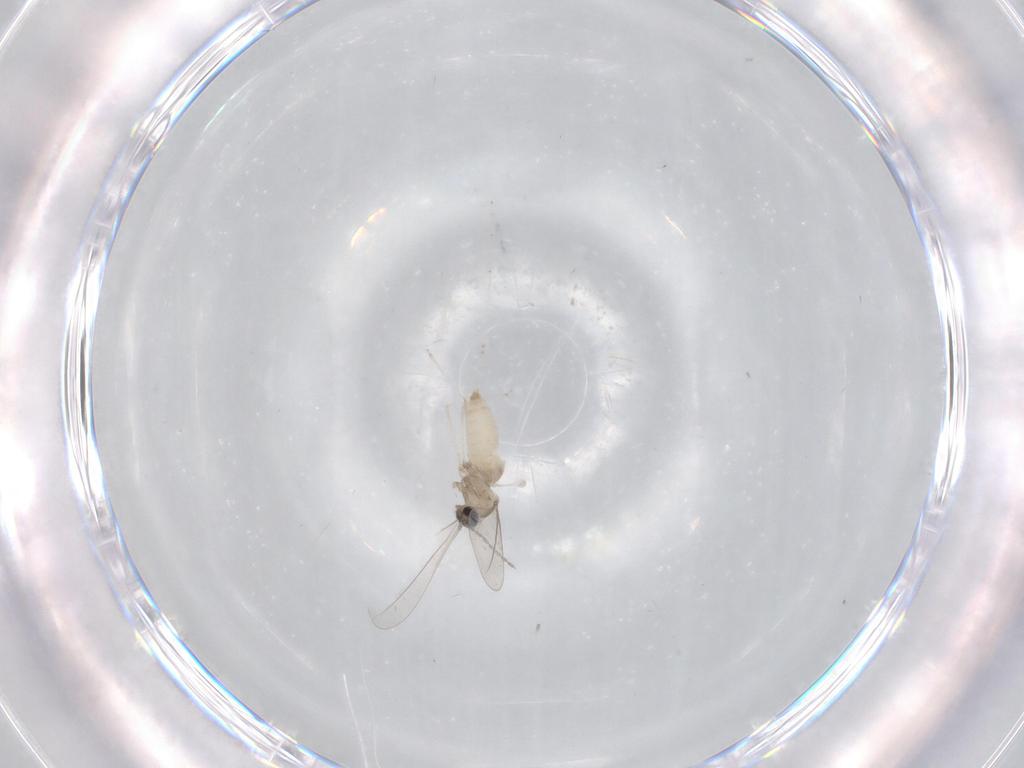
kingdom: Animalia
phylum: Arthropoda
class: Insecta
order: Diptera
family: Cecidomyiidae
